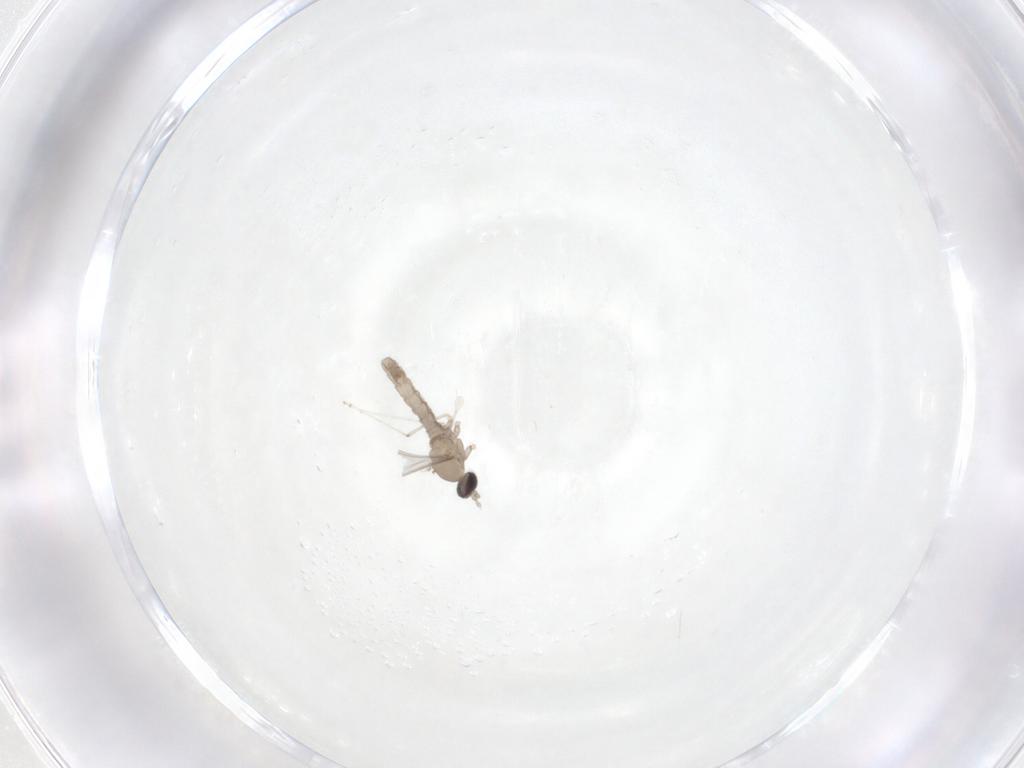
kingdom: Animalia
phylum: Arthropoda
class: Insecta
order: Diptera
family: Cecidomyiidae
